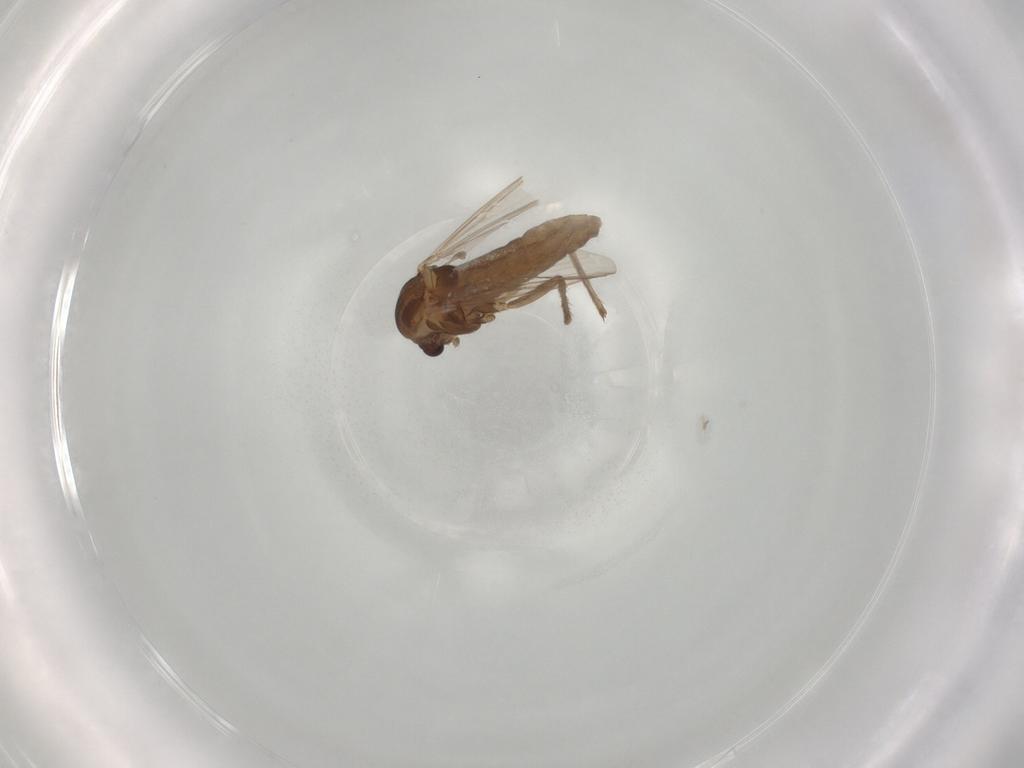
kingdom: Animalia
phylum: Arthropoda
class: Insecta
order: Diptera
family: Chironomidae
